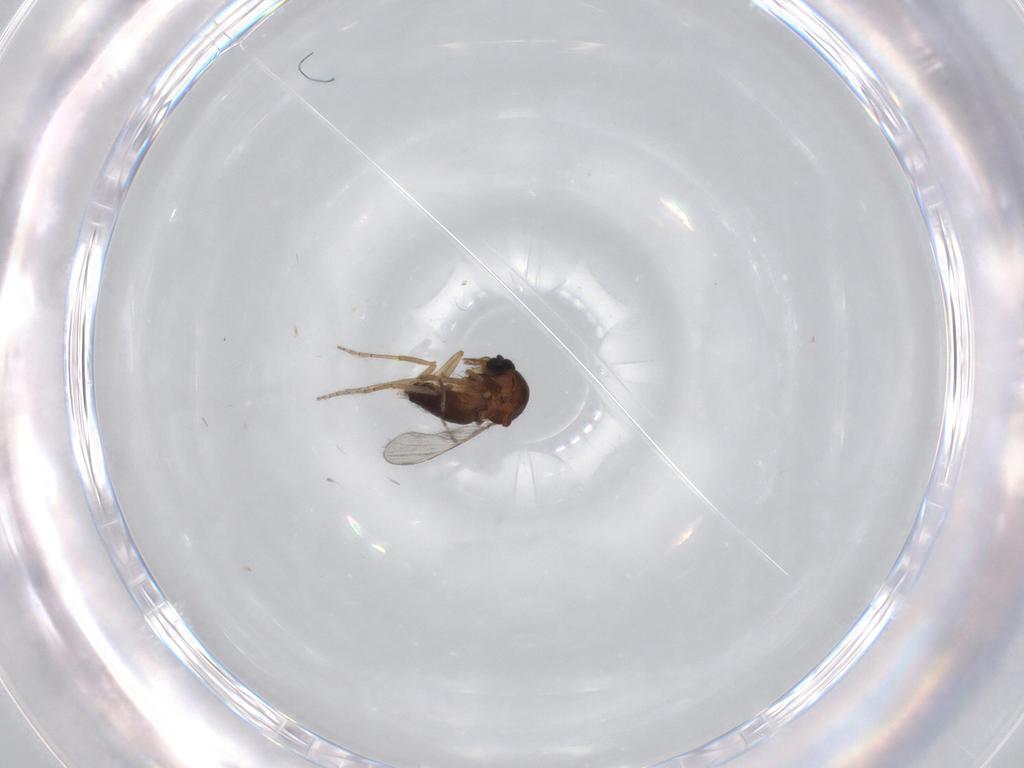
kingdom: Animalia
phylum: Arthropoda
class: Insecta
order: Diptera
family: Ceratopogonidae
